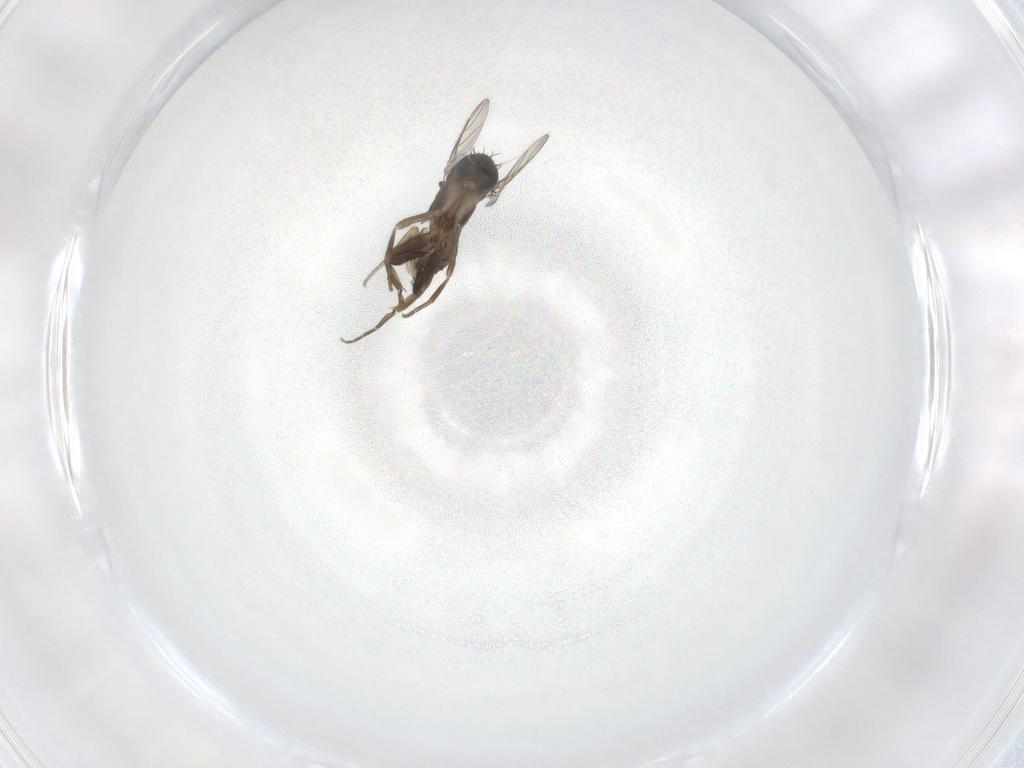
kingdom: Animalia
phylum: Arthropoda
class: Insecta
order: Diptera
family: Phoridae
